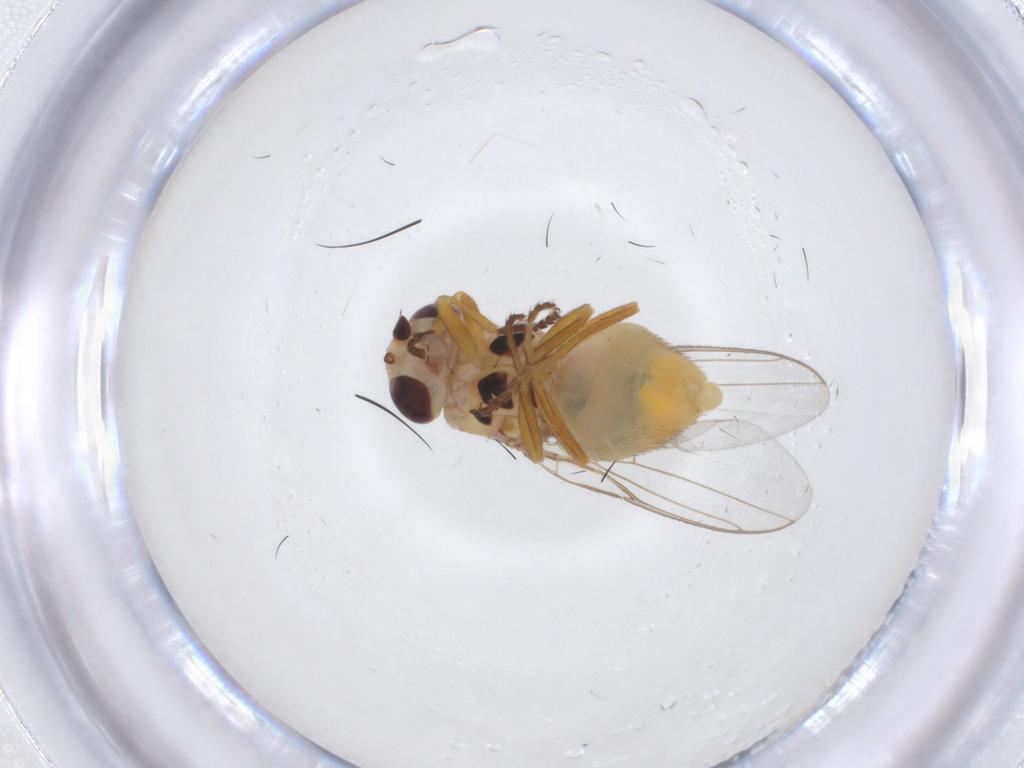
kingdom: Animalia
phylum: Arthropoda
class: Insecta
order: Diptera
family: Chloropidae
